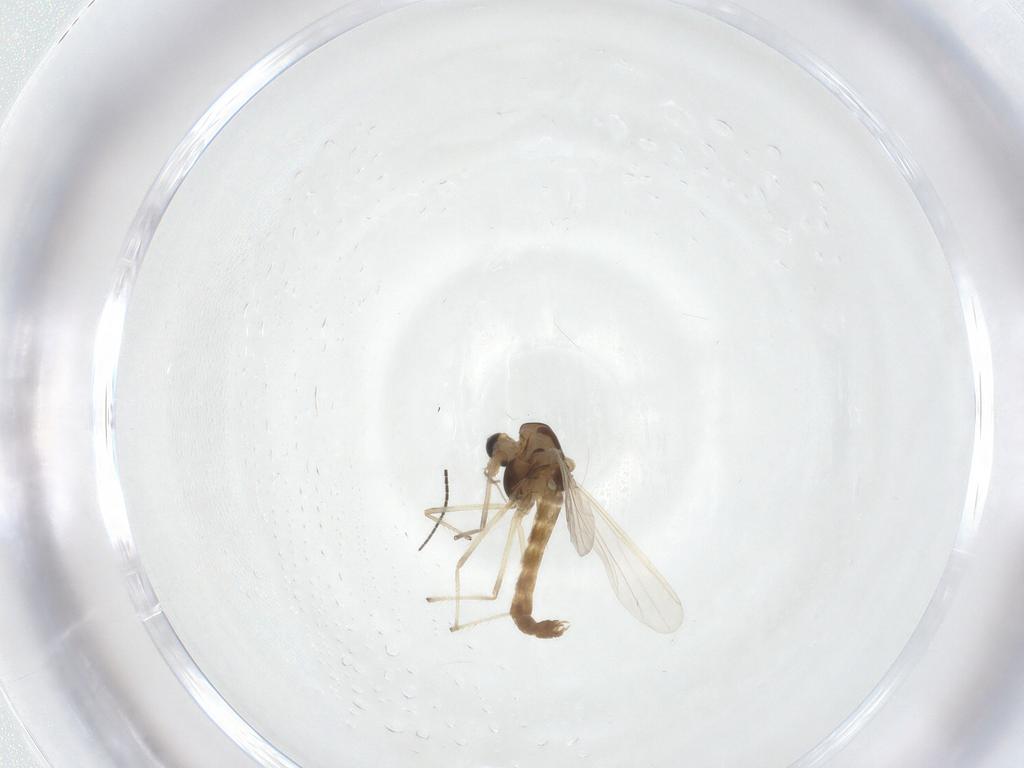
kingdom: Animalia
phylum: Arthropoda
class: Insecta
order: Diptera
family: Chironomidae
